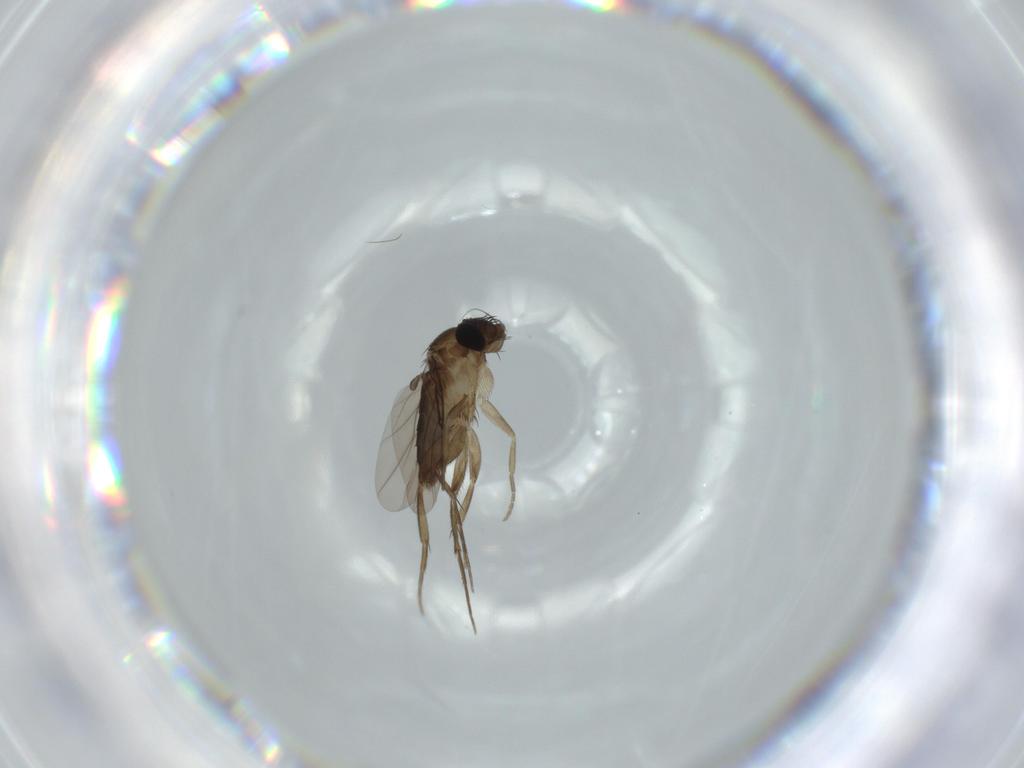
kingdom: Animalia
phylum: Arthropoda
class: Insecta
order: Diptera
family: Phoridae
